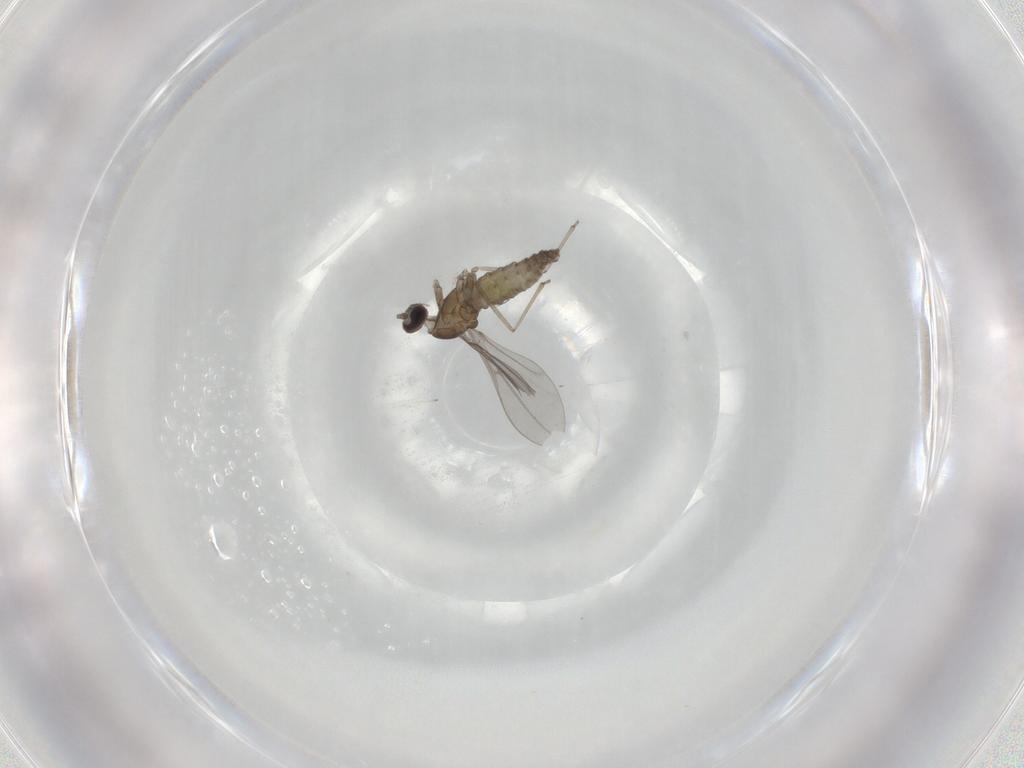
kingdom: Animalia
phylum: Arthropoda
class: Insecta
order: Diptera
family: Cecidomyiidae
